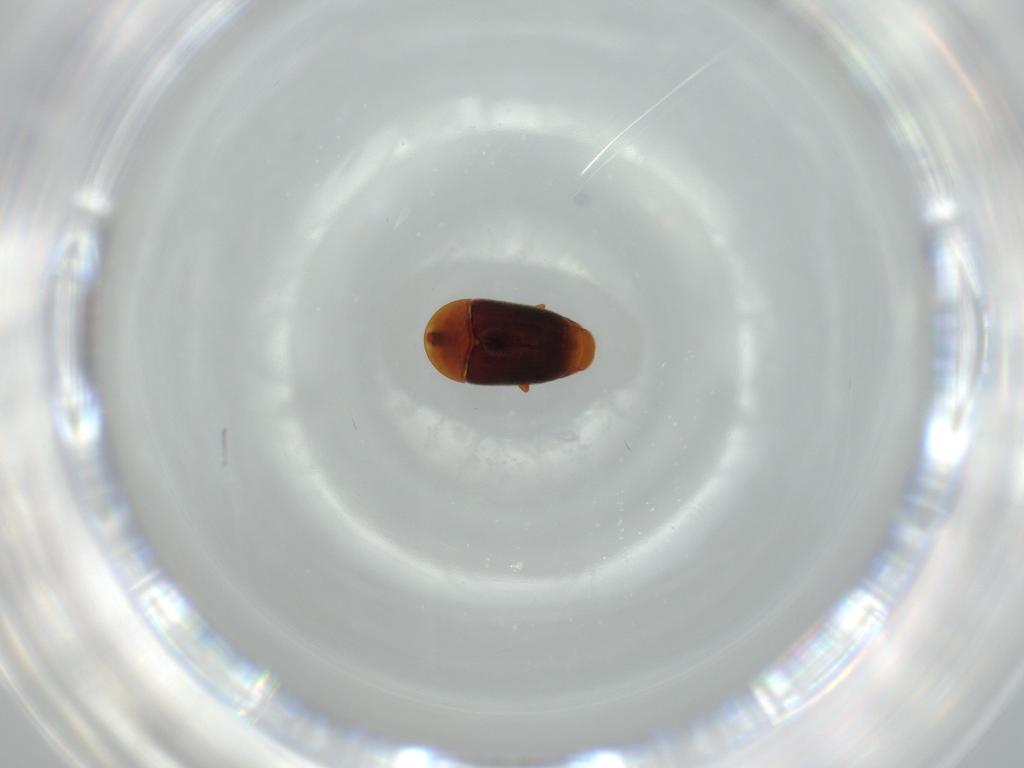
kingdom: Animalia
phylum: Arthropoda
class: Insecta
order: Coleoptera
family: Corylophidae
